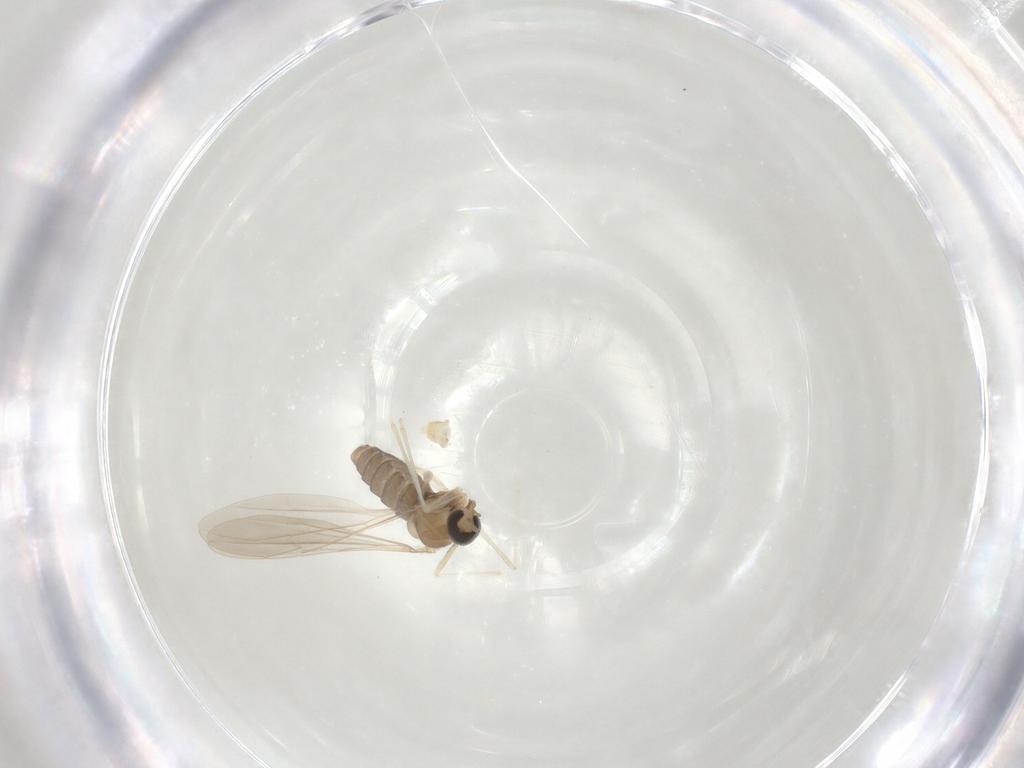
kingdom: Animalia
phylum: Arthropoda
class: Insecta
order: Diptera
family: Cecidomyiidae
